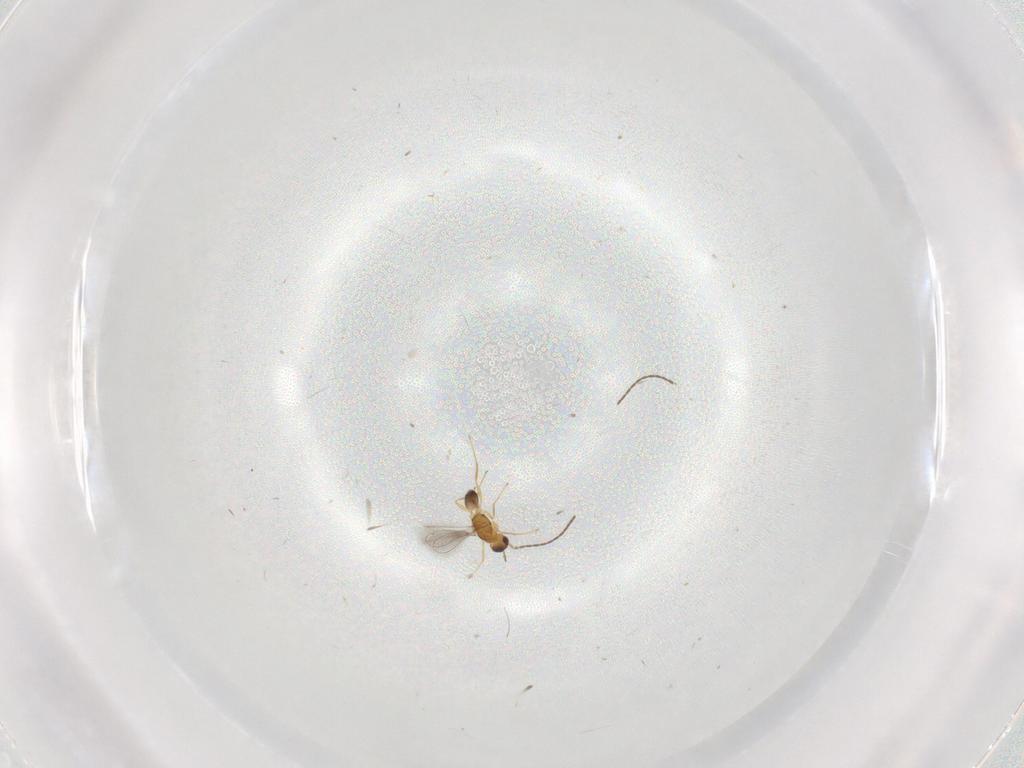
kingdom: Animalia
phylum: Arthropoda
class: Insecta
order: Hymenoptera
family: Mymaridae
